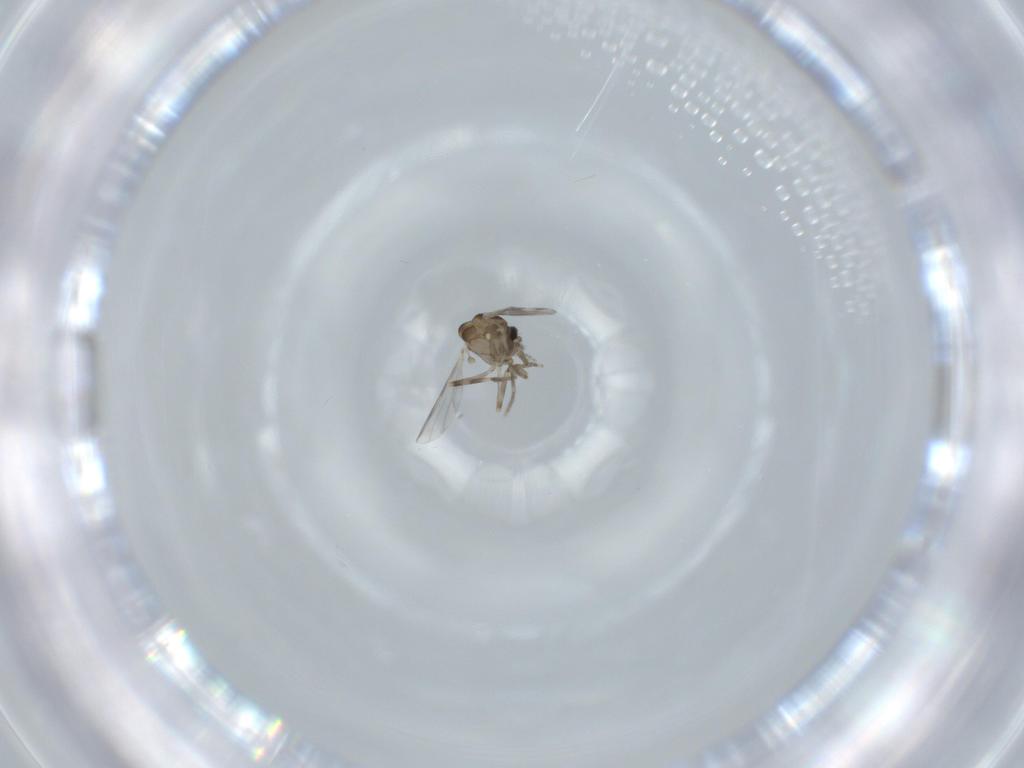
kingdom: Animalia
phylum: Arthropoda
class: Insecta
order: Diptera
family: Ceratopogonidae
